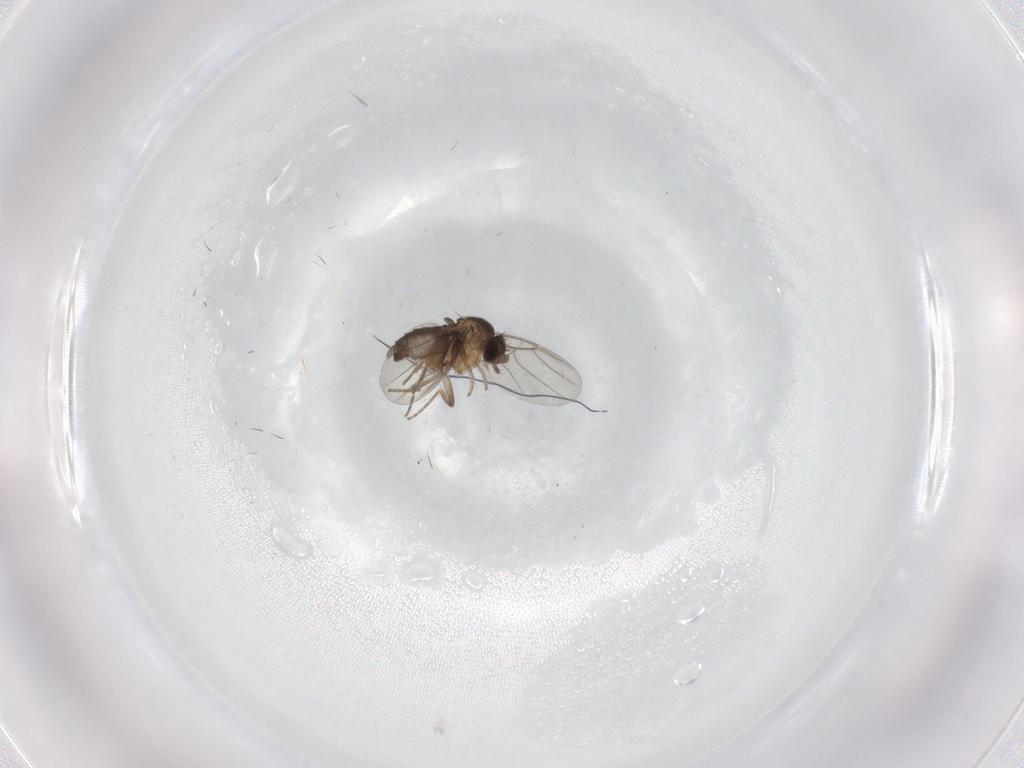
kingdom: Animalia
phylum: Arthropoda
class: Insecta
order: Diptera
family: Phoridae
